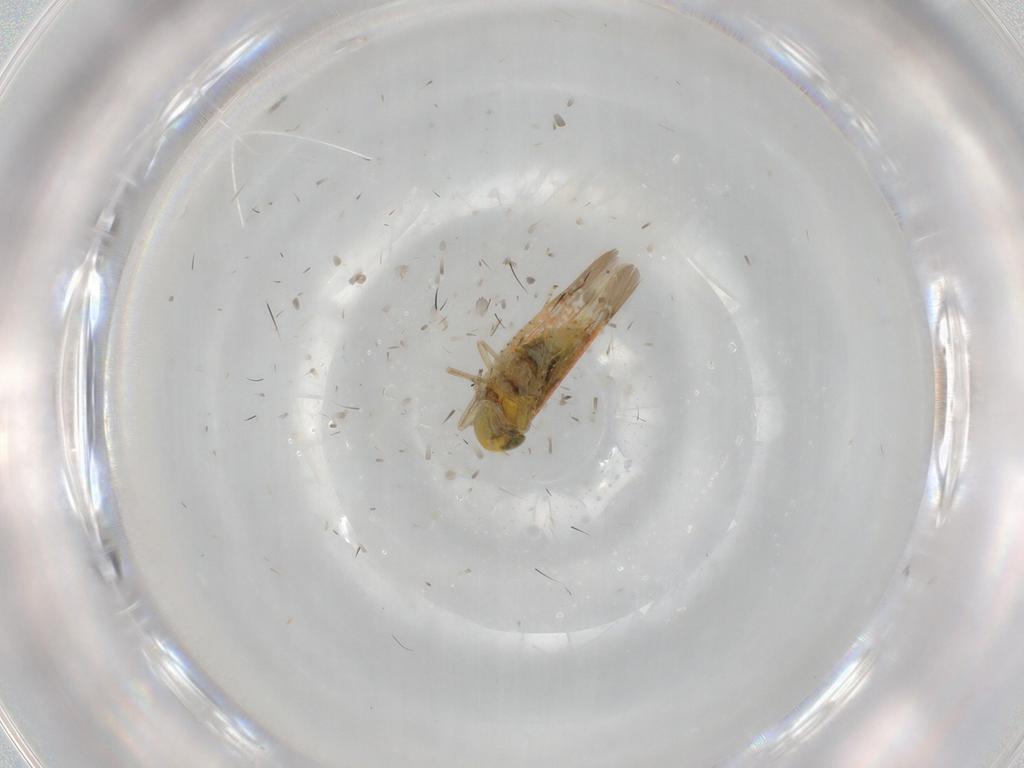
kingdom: Animalia
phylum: Arthropoda
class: Insecta
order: Hemiptera
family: Cicadellidae
